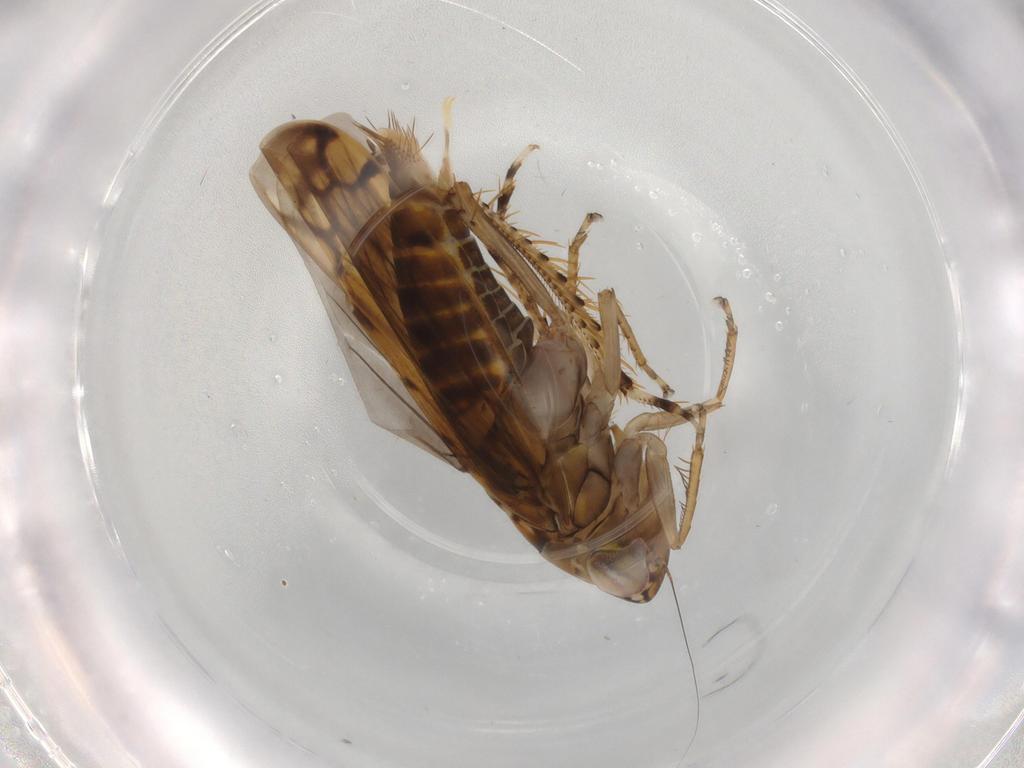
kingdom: Animalia
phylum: Arthropoda
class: Insecta
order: Hemiptera
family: Cicadellidae
